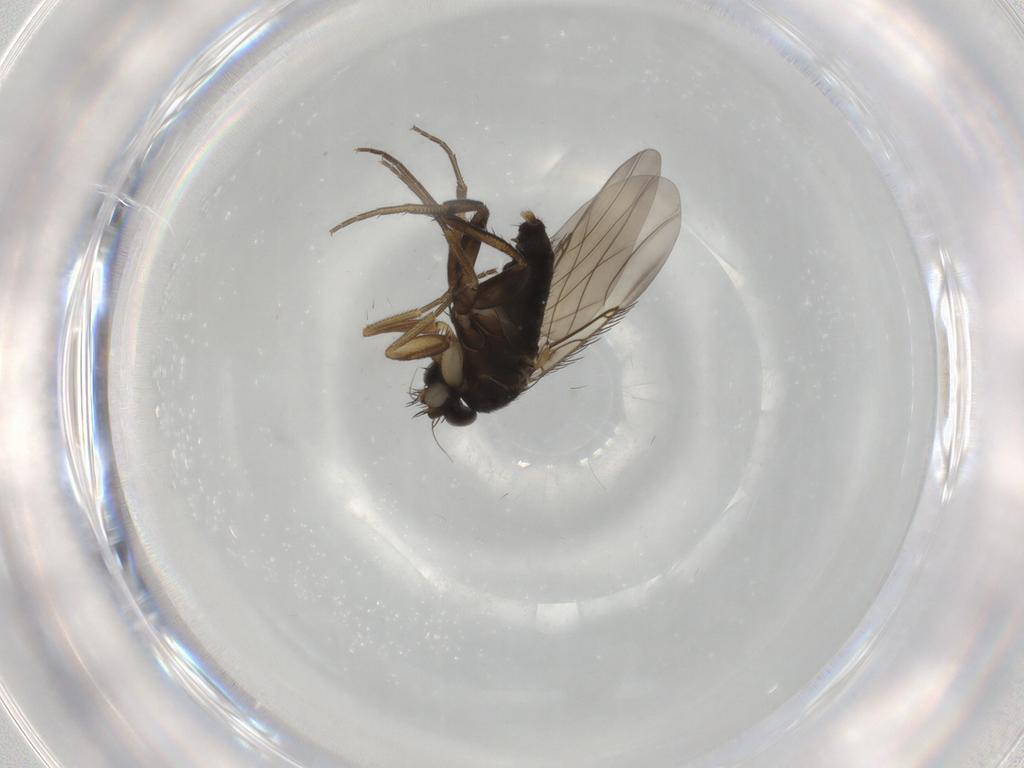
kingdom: Animalia
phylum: Arthropoda
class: Insecta
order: Diptera
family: Phoridae
